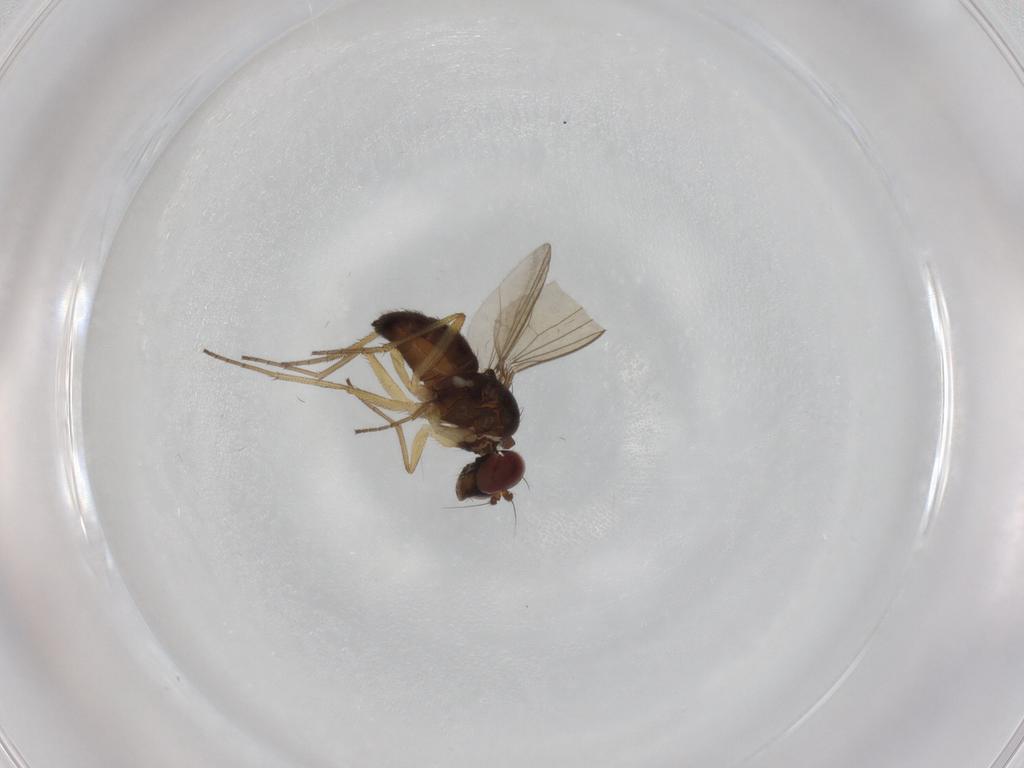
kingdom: Animalia
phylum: Arthropoda
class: Insecta
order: Diptera
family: Dolichopodidae
